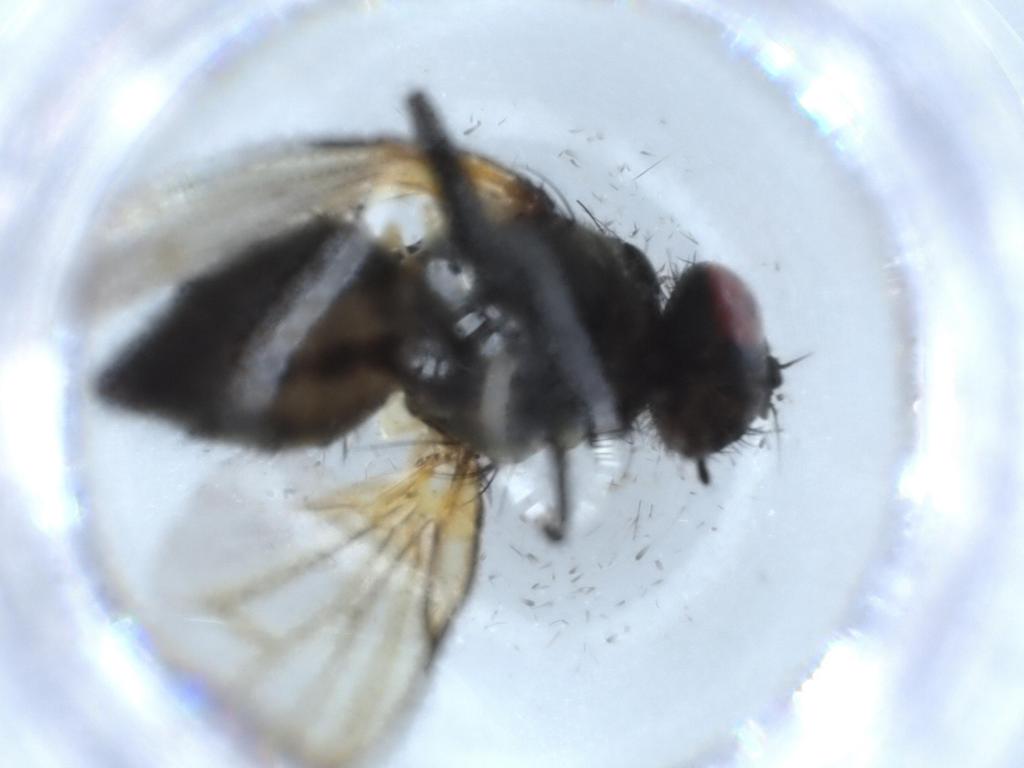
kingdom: Animalia
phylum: Arthropoda
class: Insecta
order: Diptera
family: Muscidae
